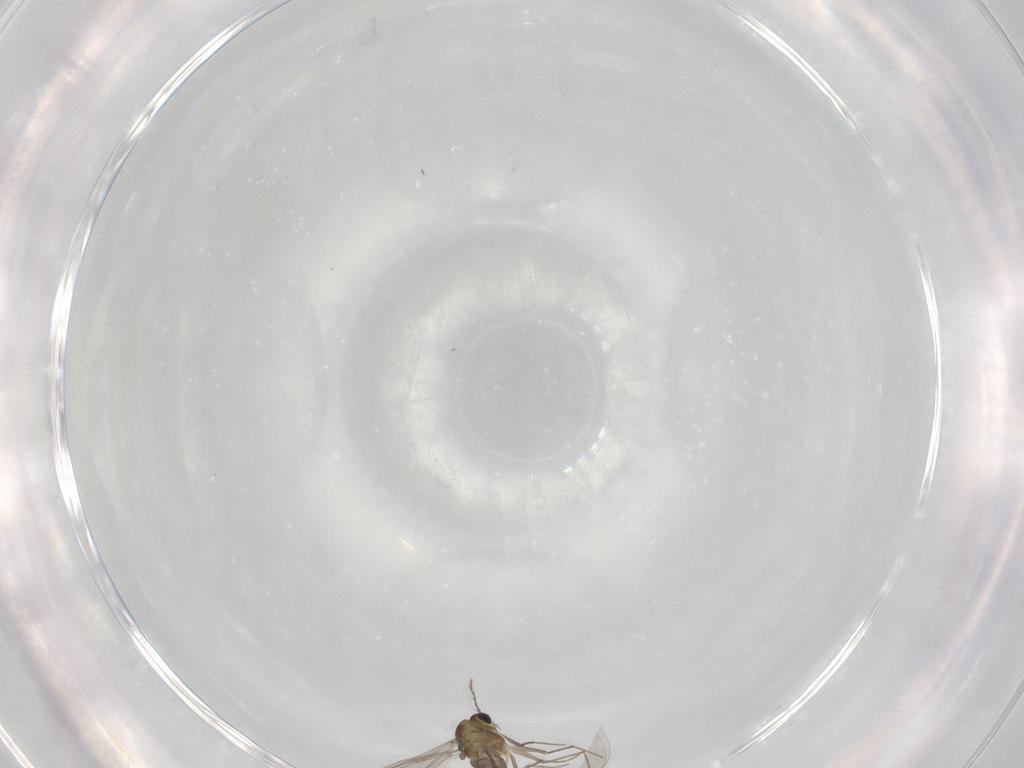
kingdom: Animalia
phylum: Arthropoda
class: Insecta
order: Diptera
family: Chironomidae
